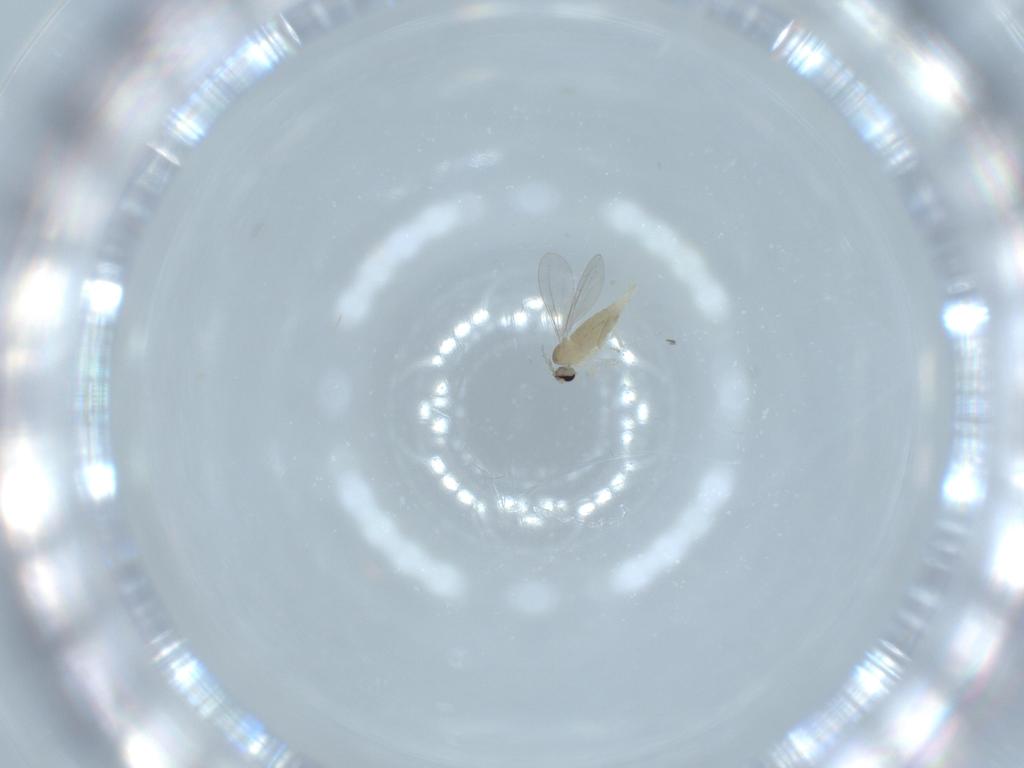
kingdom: Animalia
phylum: Arthropoda
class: Insecta
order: Diptera
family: Cecidomyiidae
